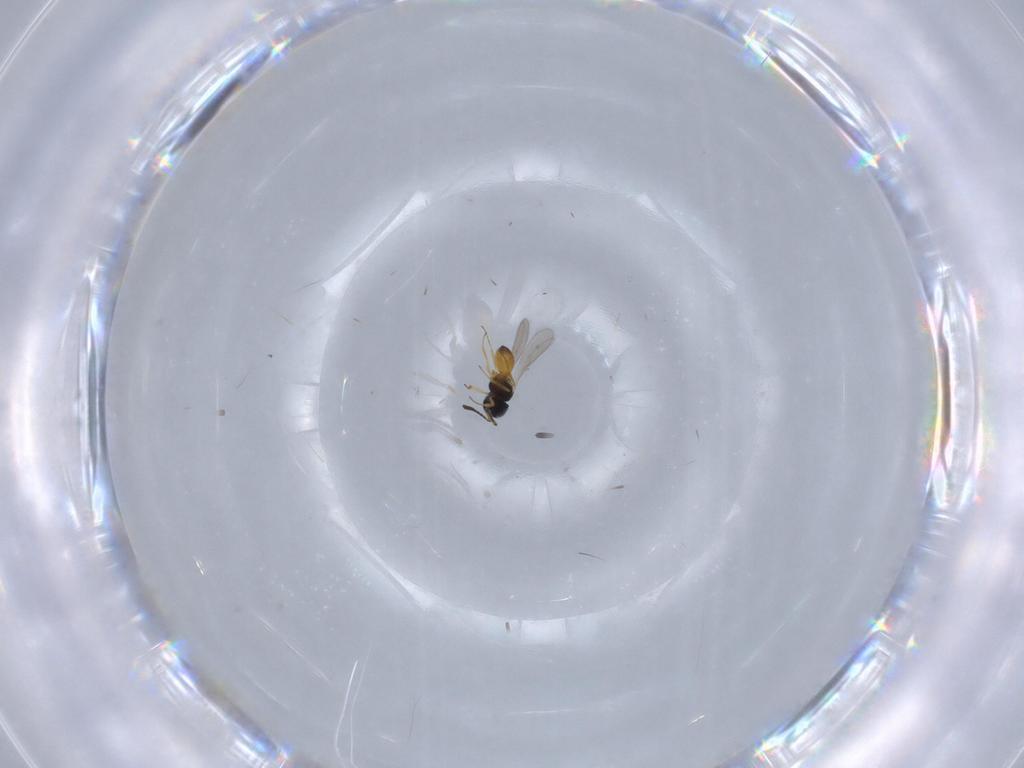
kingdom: Animalia
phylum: Arthropoda
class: Insecta
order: Hymenoptera
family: Scelionidae
